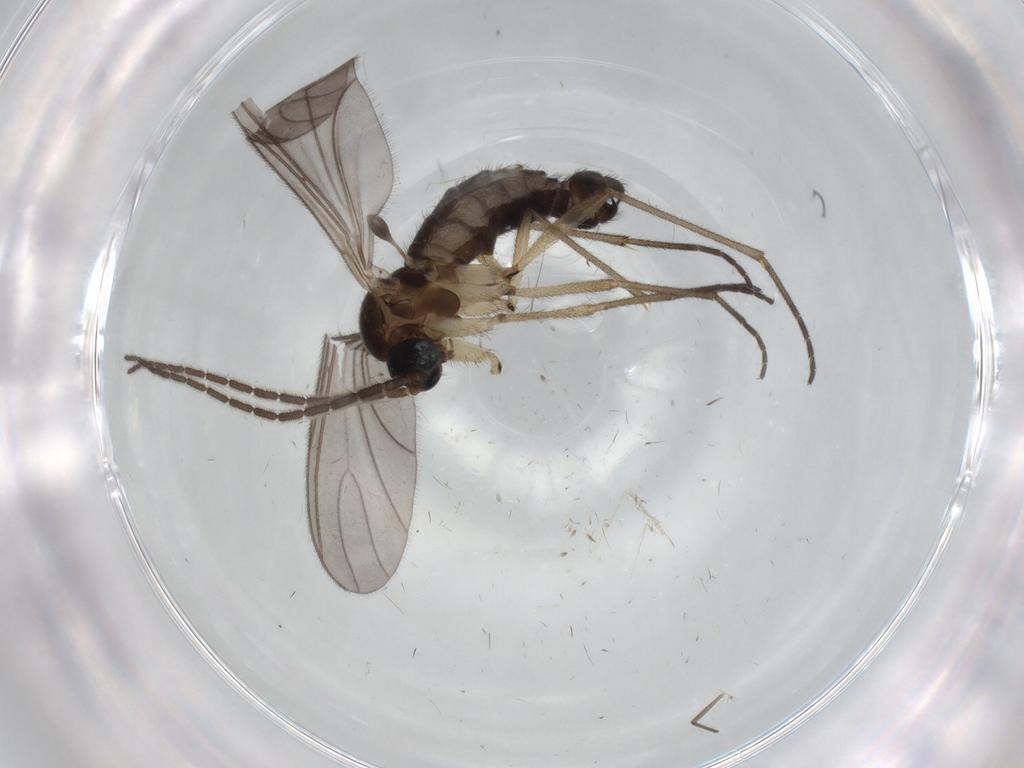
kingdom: Animalia
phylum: Arthropoda
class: Insecta
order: Diptera
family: Sciaridae
